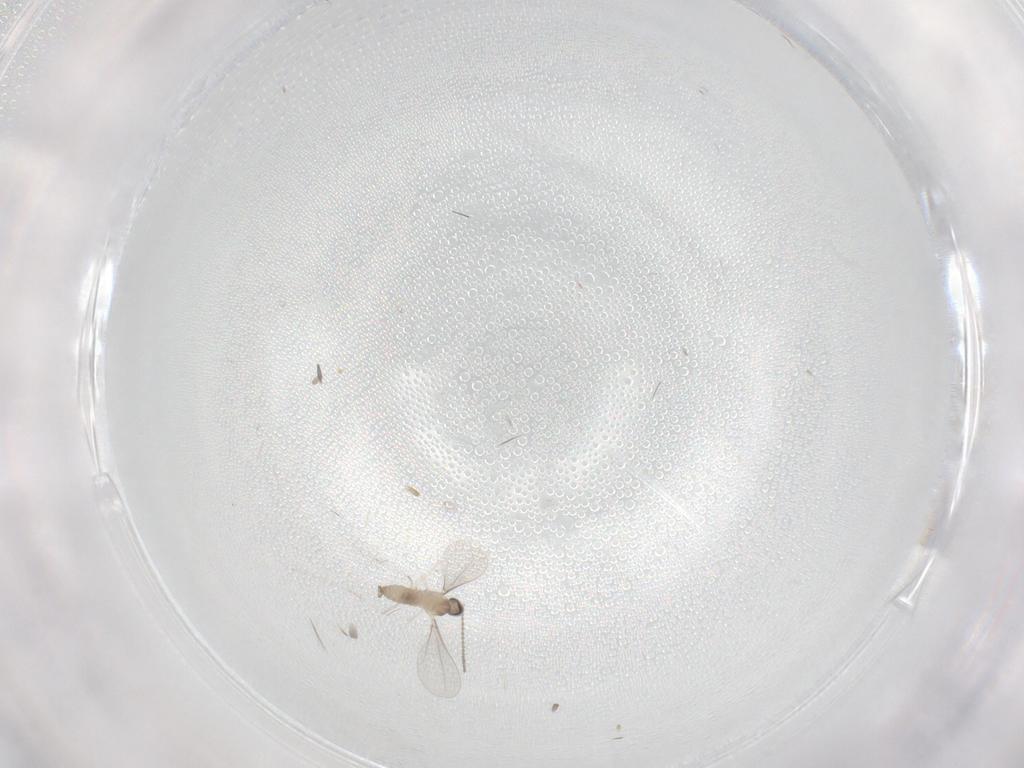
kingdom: Animalia
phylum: Arthropoda
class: Insecta
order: Diptera
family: Cecidomyiidae
